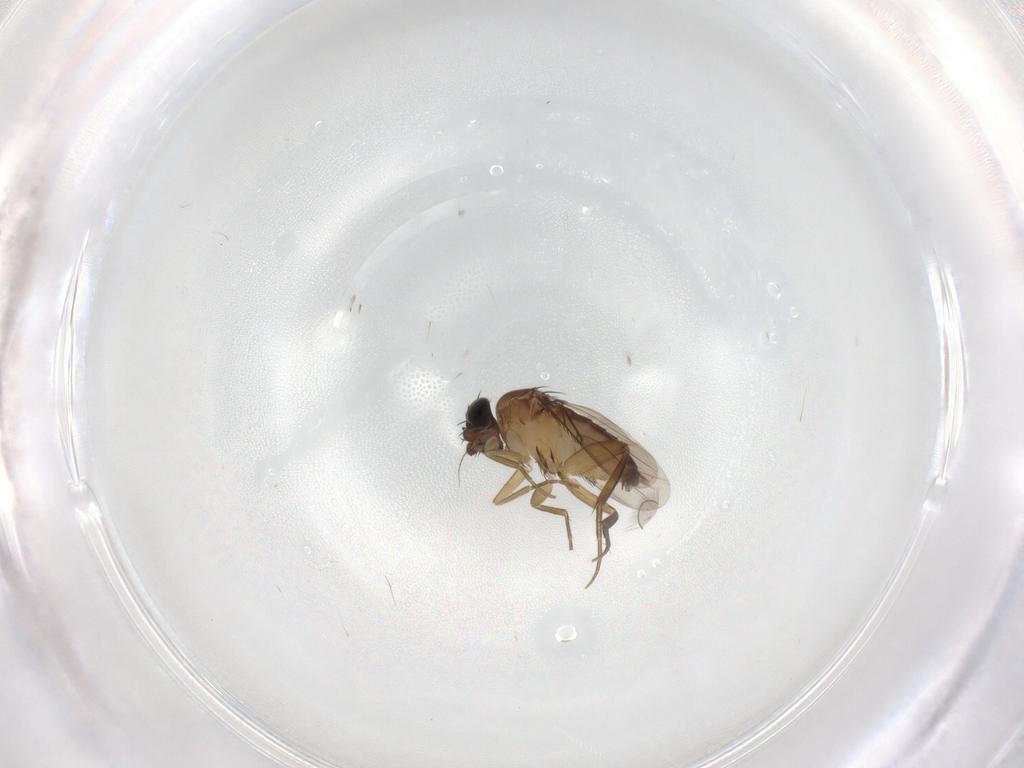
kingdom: Animalia
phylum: Arthropoda
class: Insecta
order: Diptera
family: Phoridae
